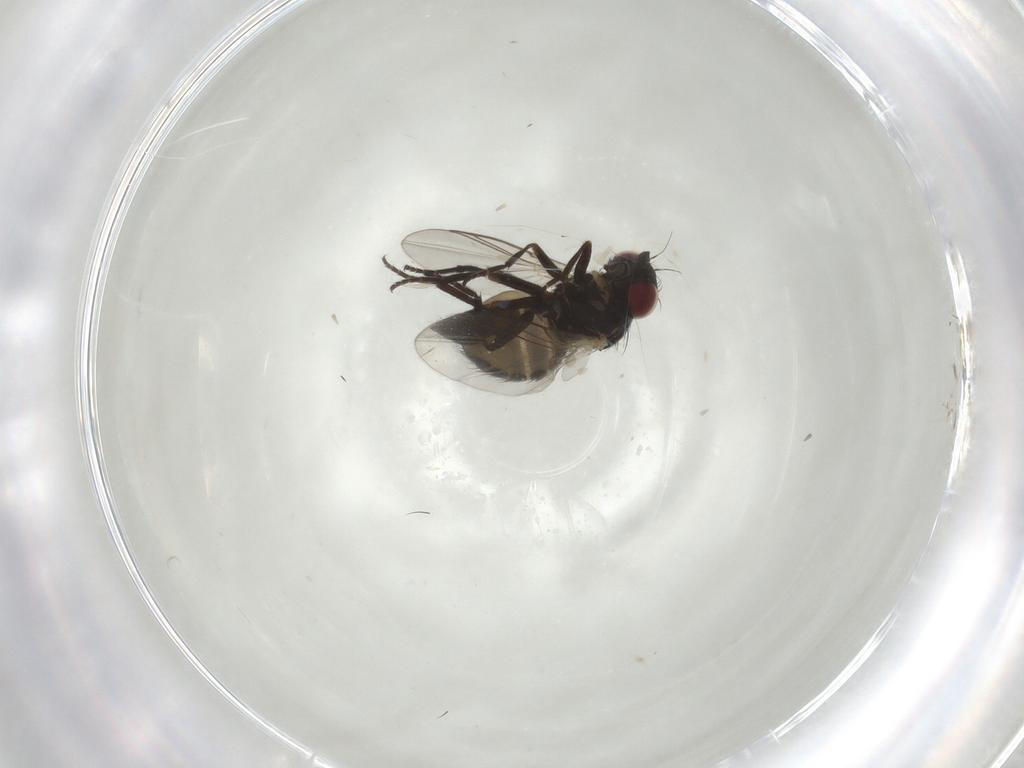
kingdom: Animalia
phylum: Arthropoda
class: Insecta
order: Diptera
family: Agromyzidae
